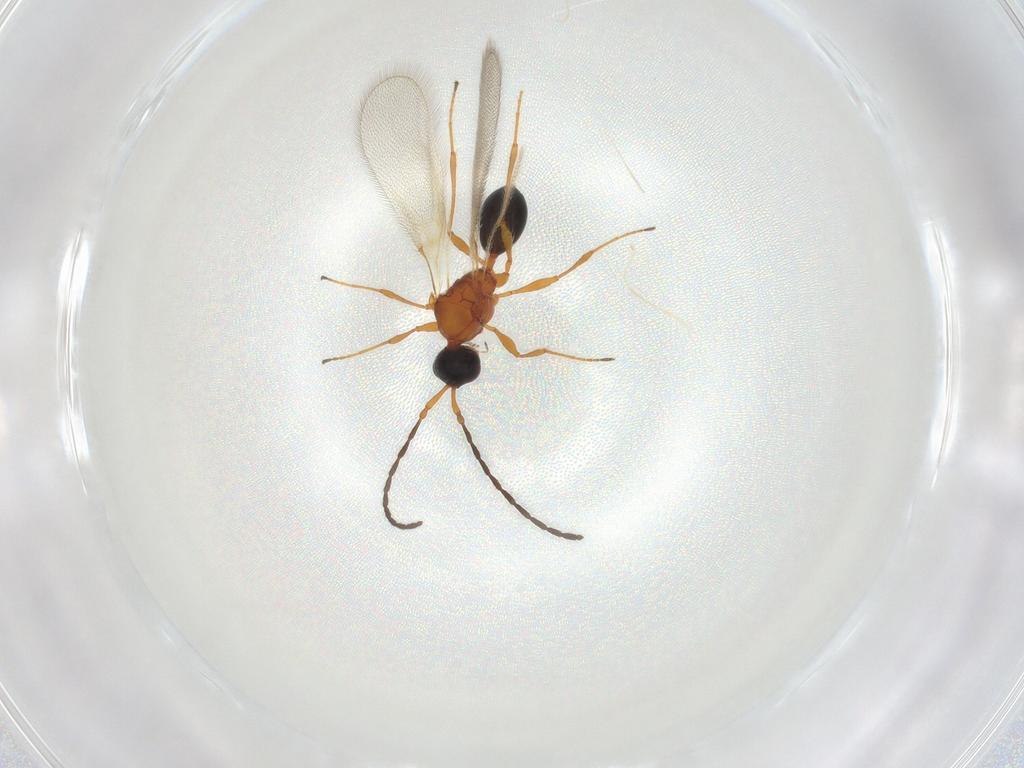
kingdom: Animalia
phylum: Arthropoda
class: Insecta
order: Hymenoptera
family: Diapriidae
